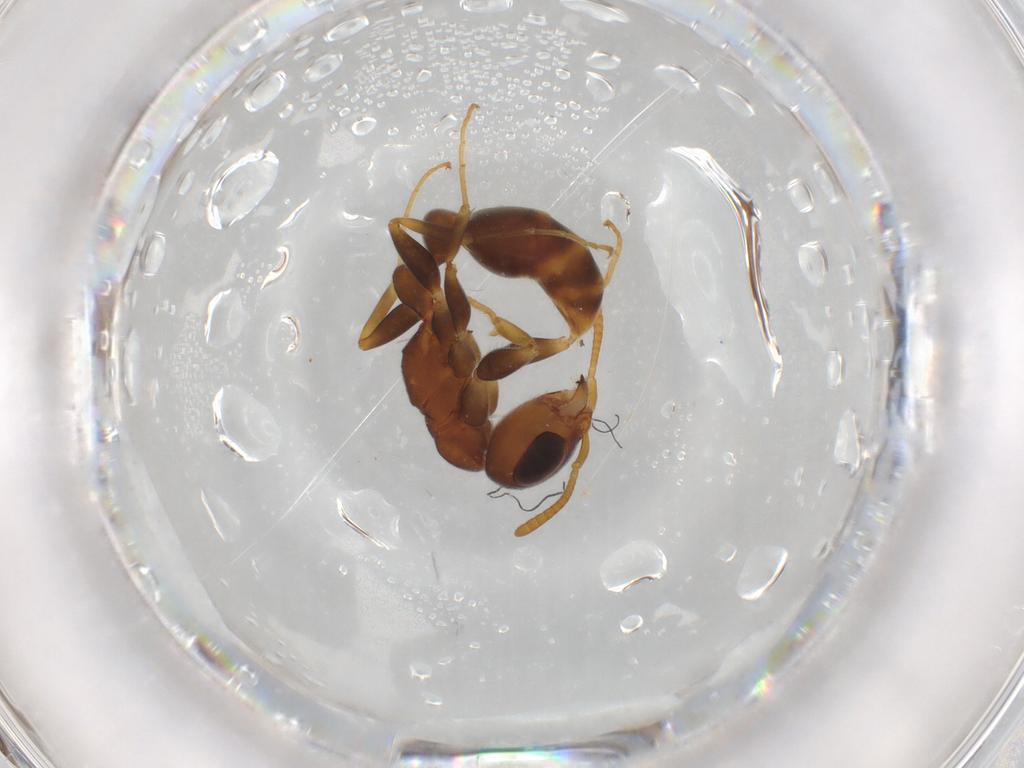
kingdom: Animalia
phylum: Arthropoda
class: Insecta
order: Hymenoptera
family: Formicidae
